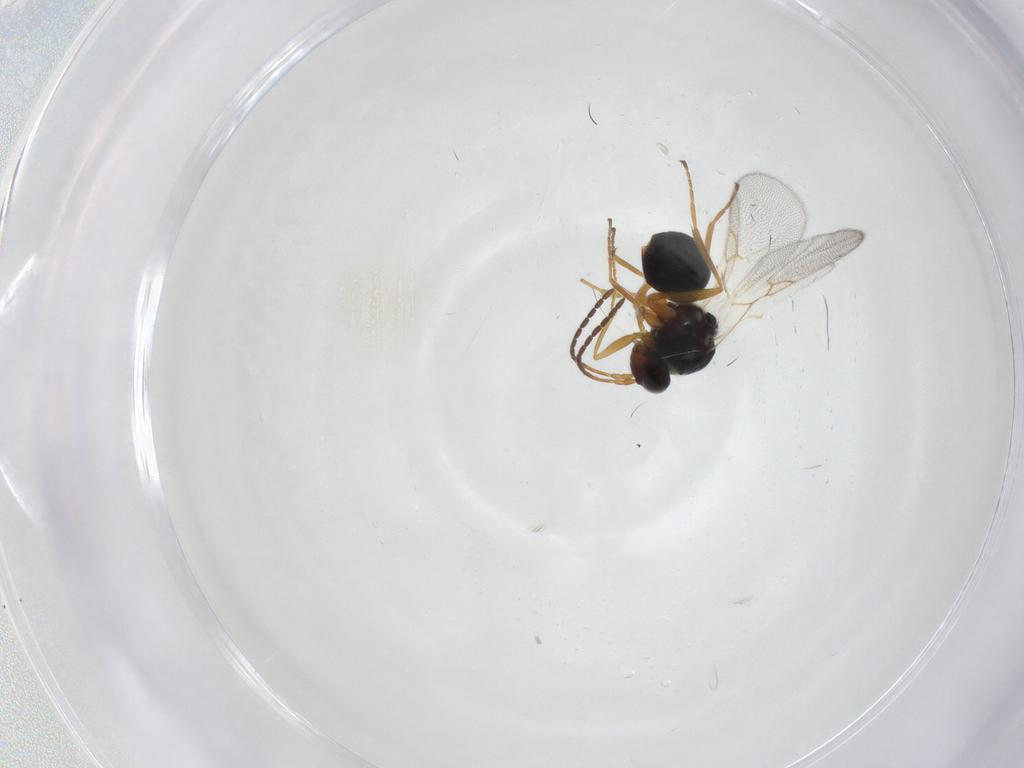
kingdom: Animalia
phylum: Arthropoda
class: Insecta
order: Hymenoptera
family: Figitidae
